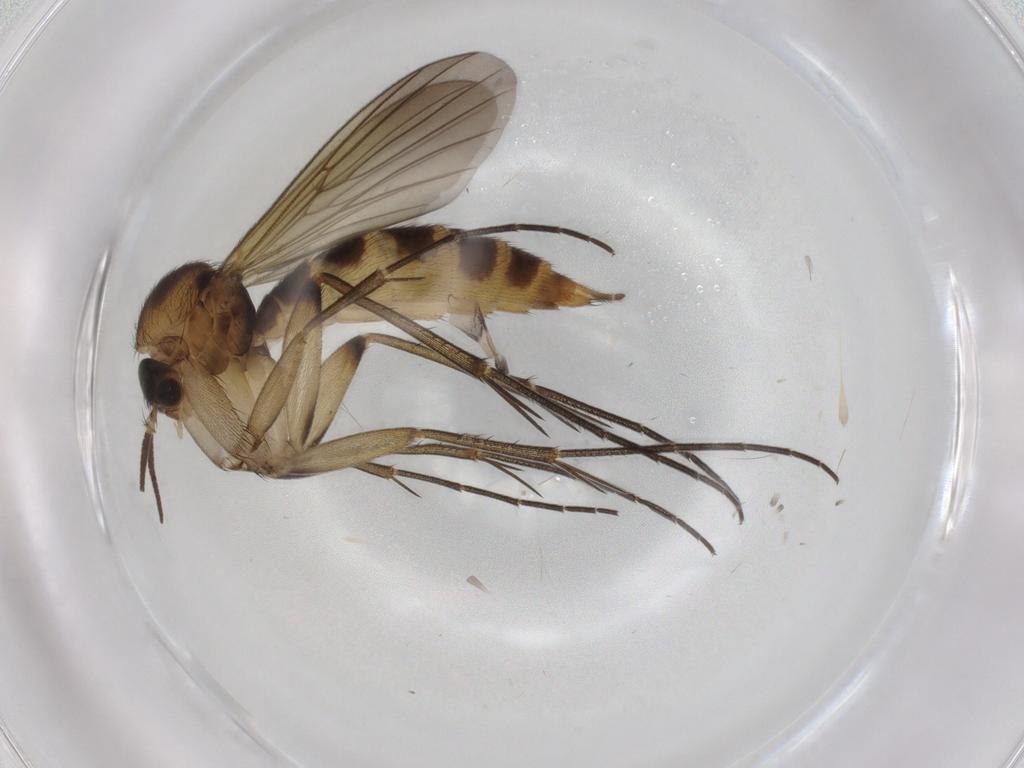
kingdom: Animalia
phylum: Arthropoda
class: Insecta
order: Diptera
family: Mycetophilidae
